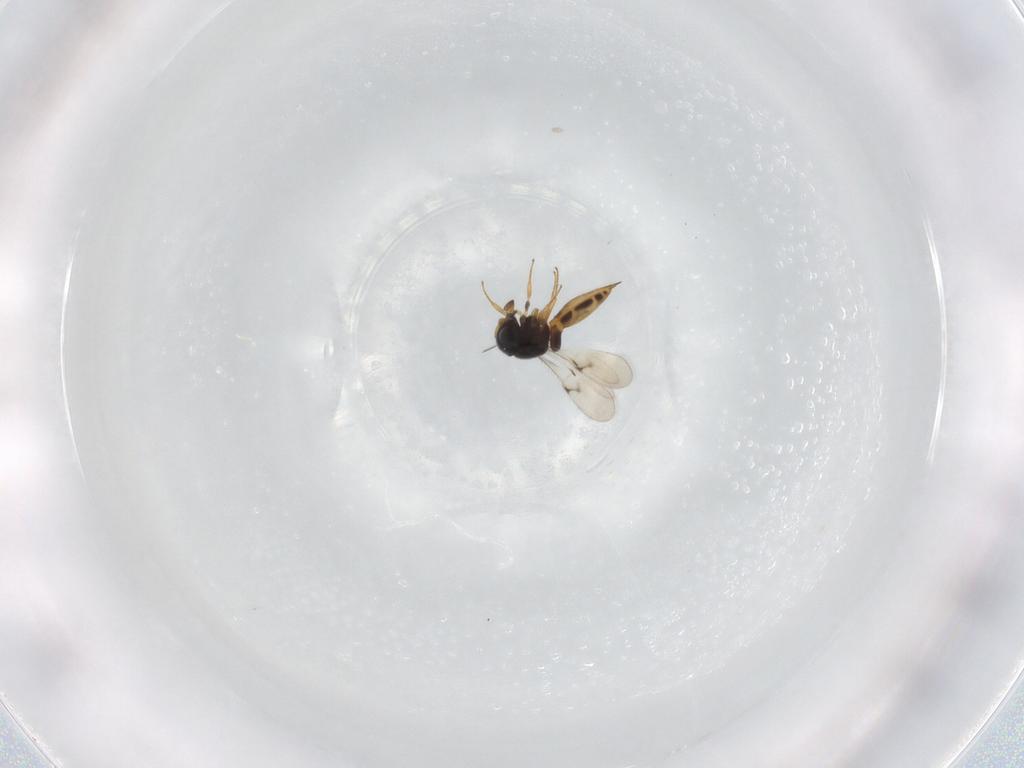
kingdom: Animalia
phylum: Arthropoda
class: Insecta
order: Hymenoptera
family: Scelionidae
